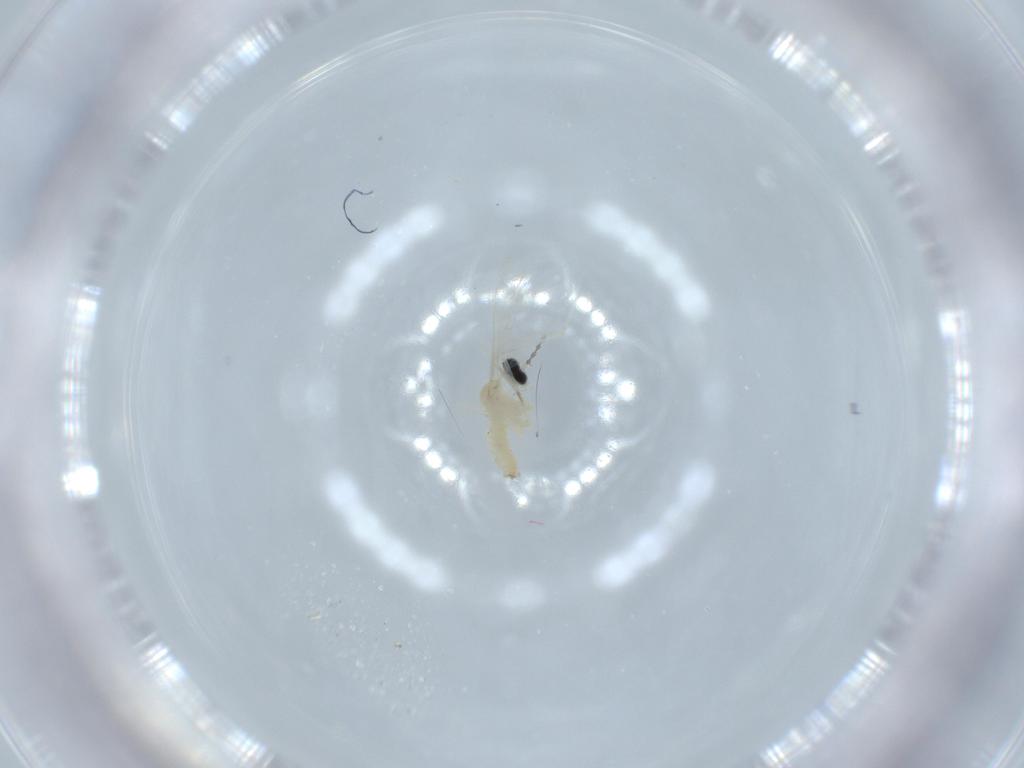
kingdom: Animalia
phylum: Arthropoda
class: Insecta
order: Diptera
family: Cecidomyiidae
